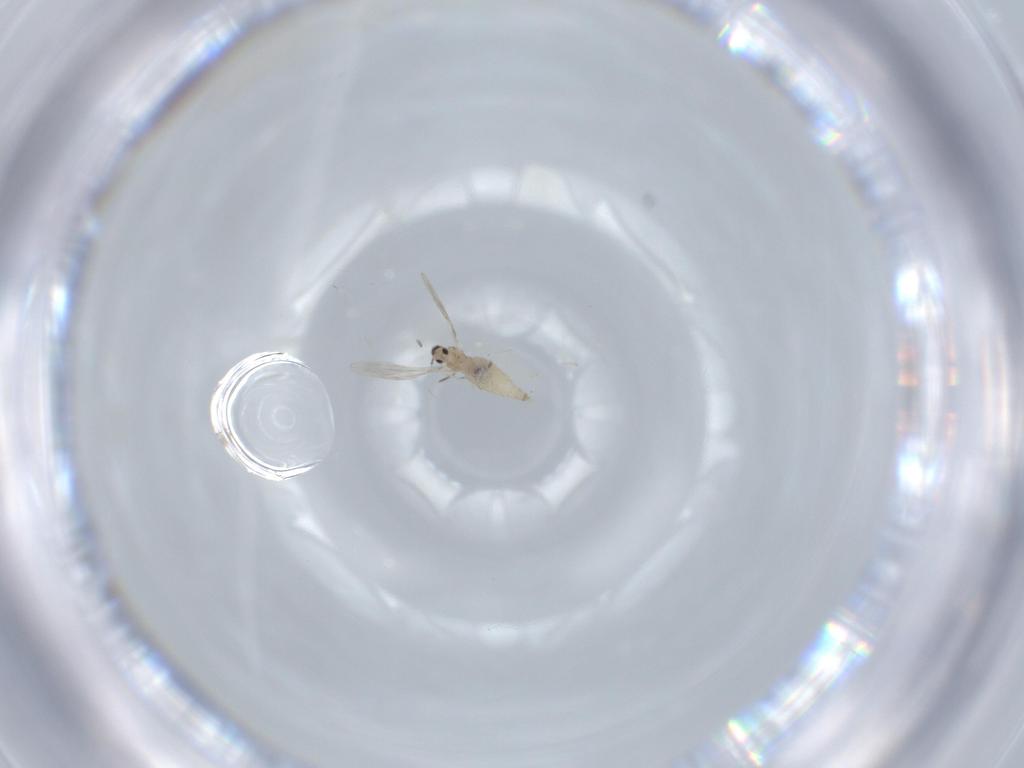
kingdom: Animalia
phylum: Arthropoda
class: Insecta
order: Diptera
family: Cecidomyiidae
